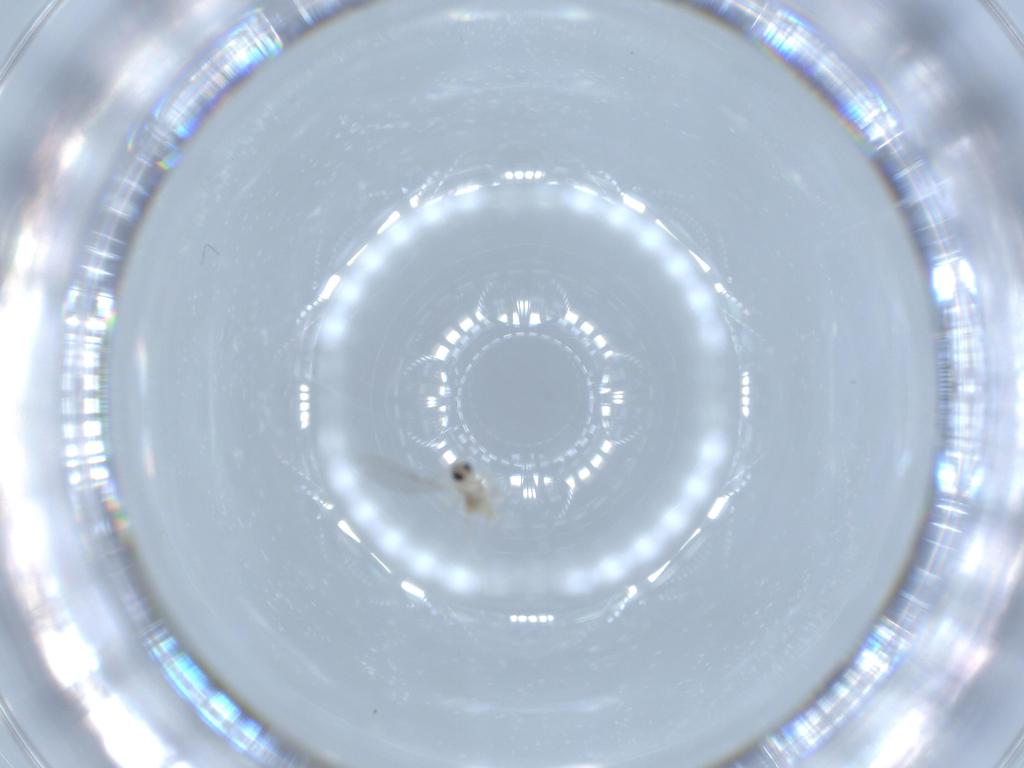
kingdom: Animalia
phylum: Arthropoda
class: Insecta
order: Diptera
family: Cecidomyiidae
